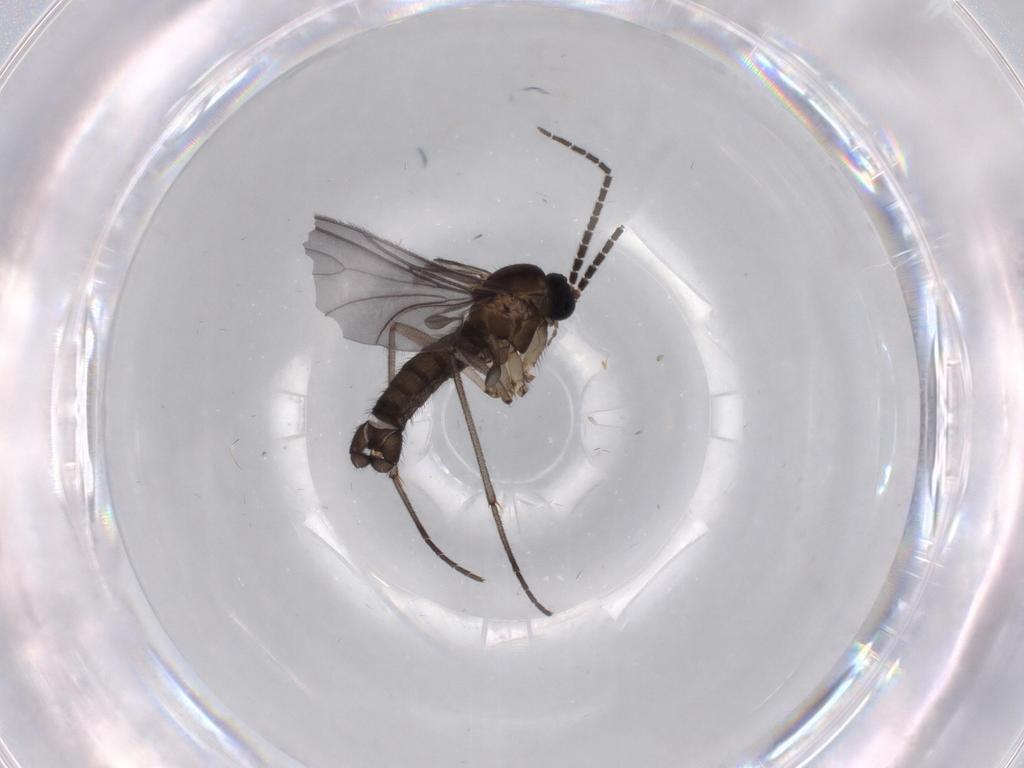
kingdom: Animalia
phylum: Arthropoda
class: Insecta
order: Diptera
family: Sciaridae
